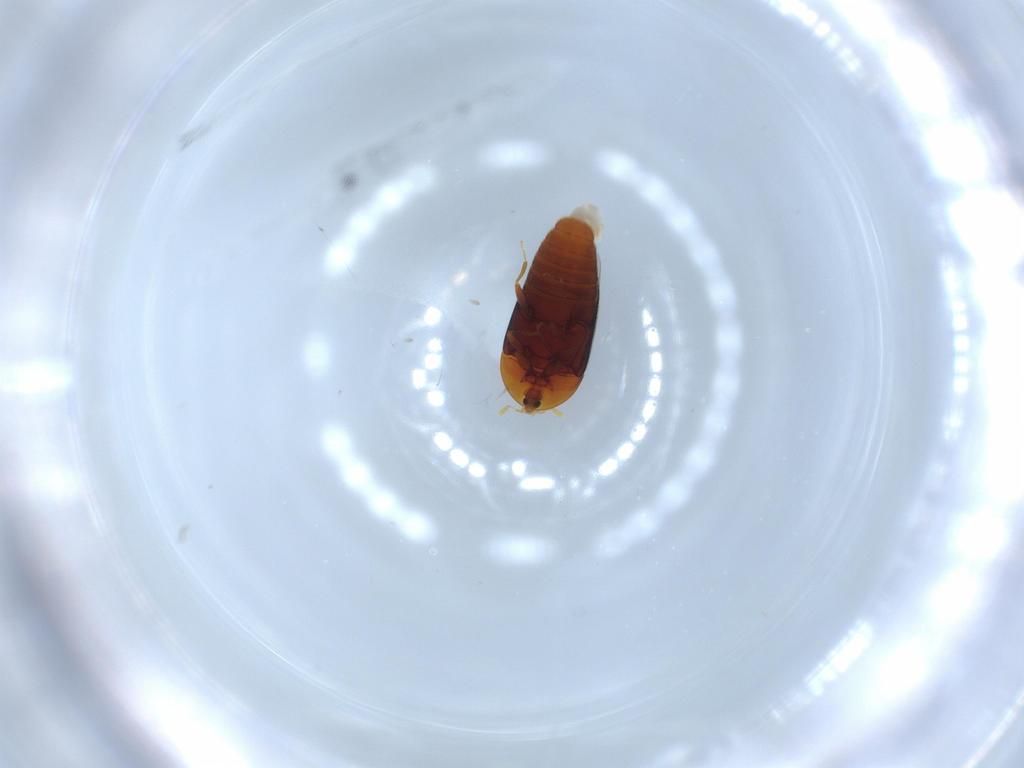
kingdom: Animalia
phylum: Arthropoda
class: Insecta
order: Coleoptera
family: Corylophidae
